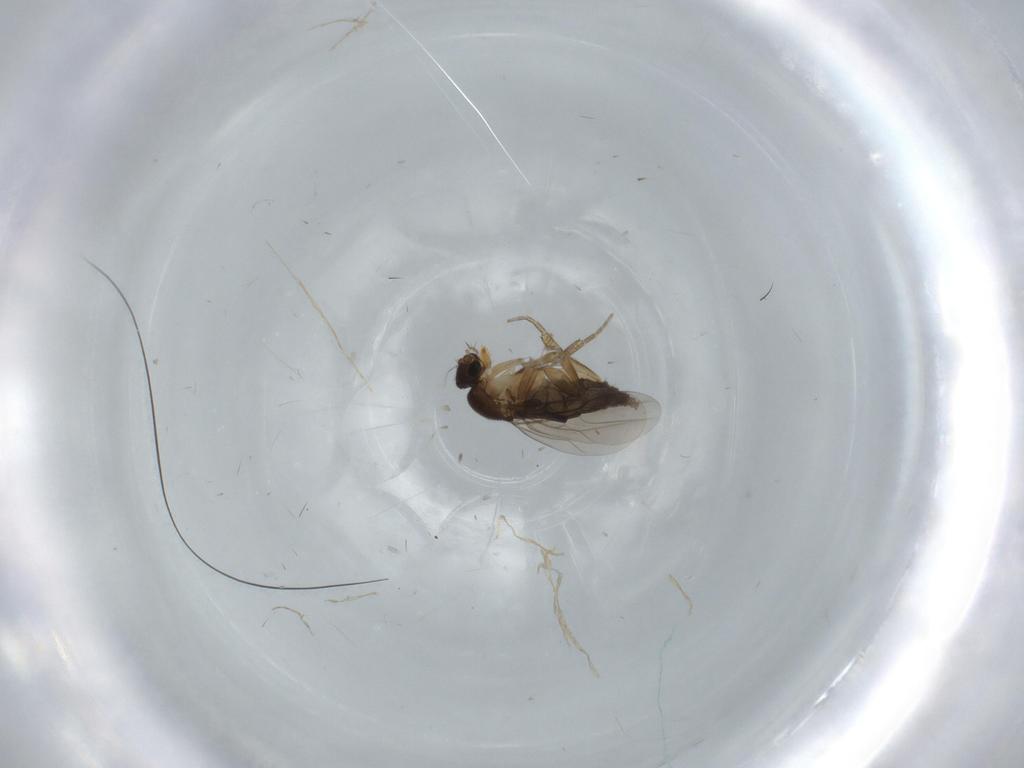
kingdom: Animalia
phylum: Arthropoda
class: Insecta
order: Diptera
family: Phoridae
